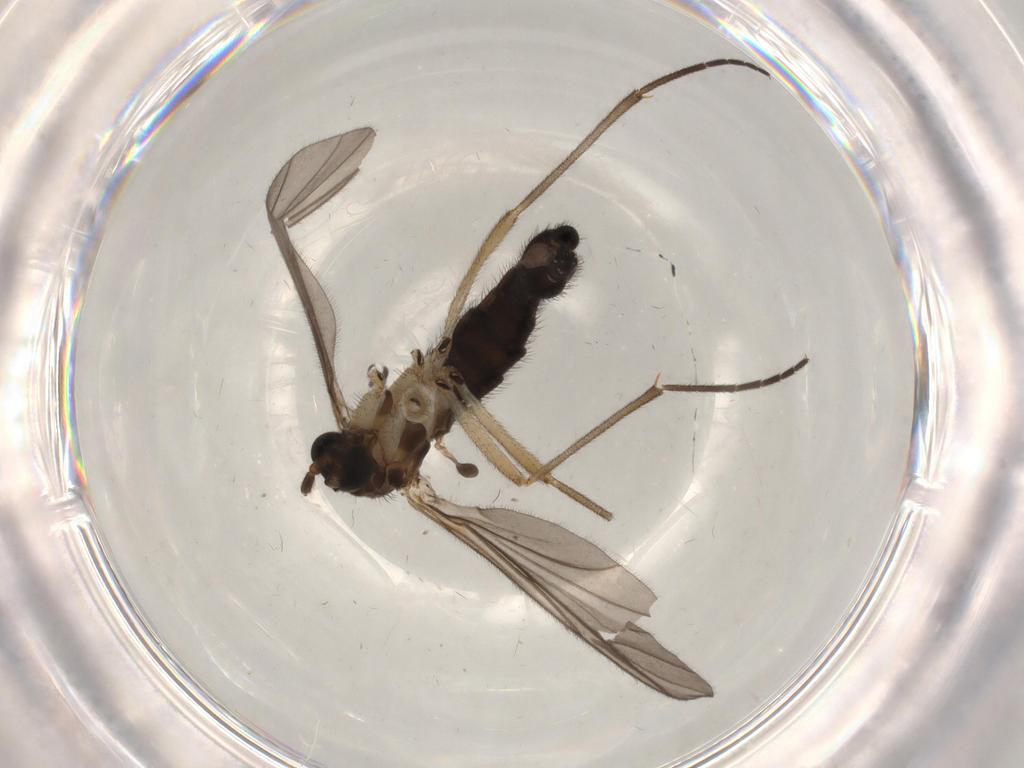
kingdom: Animalia
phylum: Arthropoda
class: Insecta
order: Diptera
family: Sciaridae
